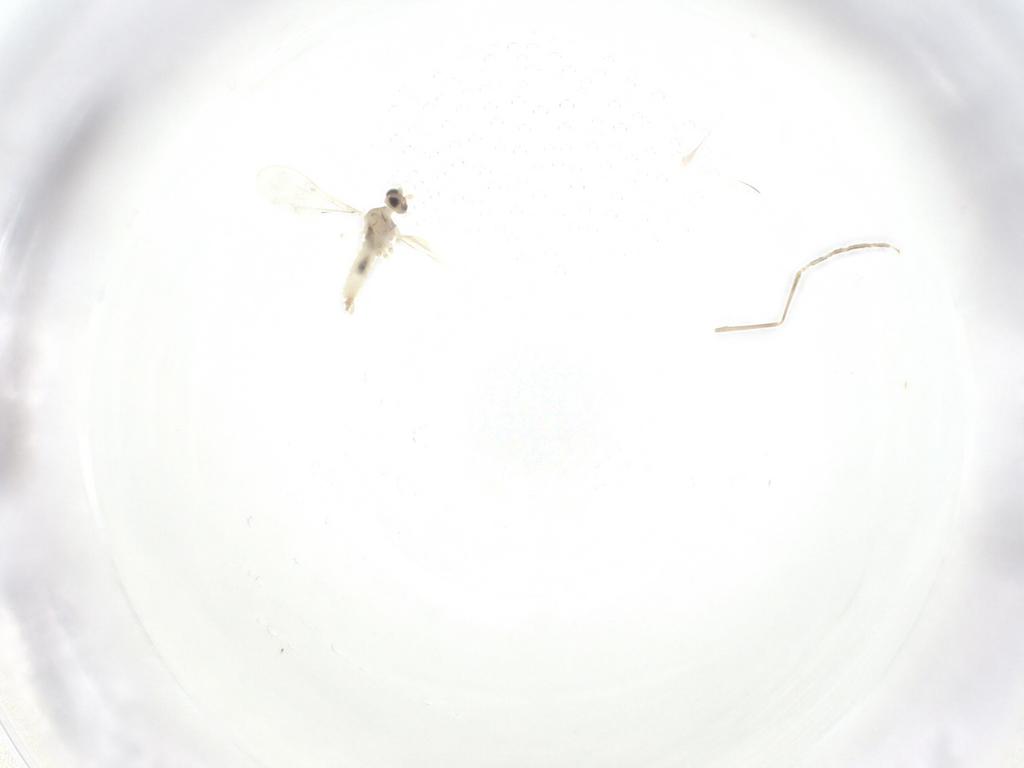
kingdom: Animalia
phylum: Arthropoda
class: Insecta
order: Diptera
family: Cecidomyiidae
